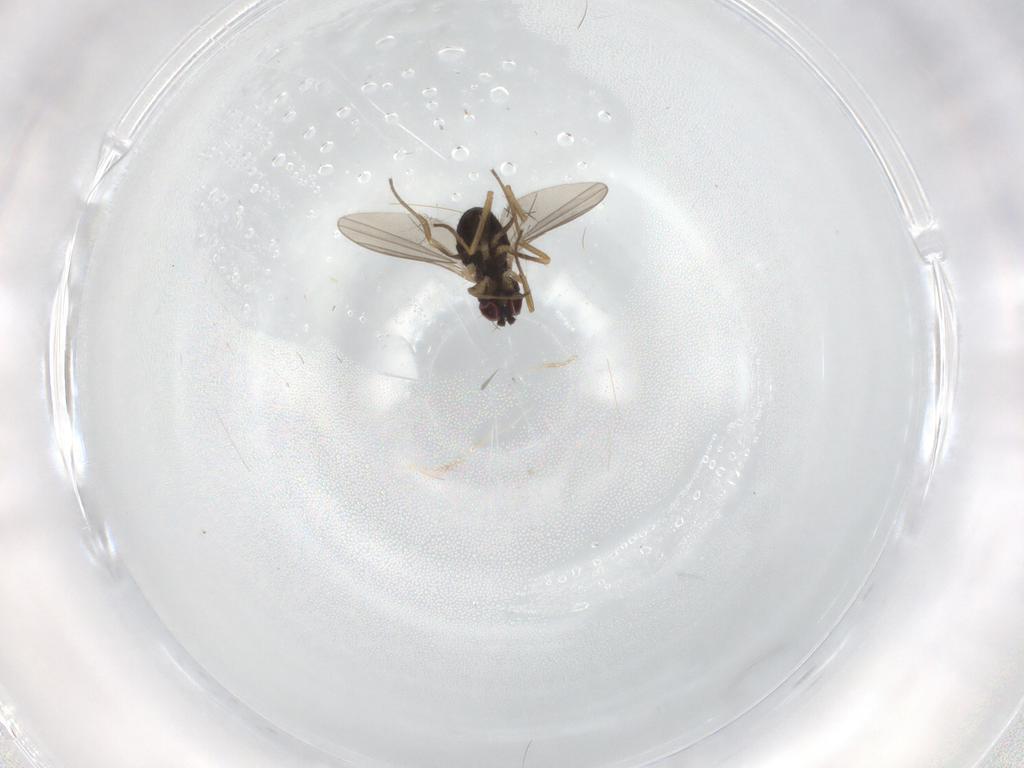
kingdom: Animalia
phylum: Arthropoda
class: Insecta
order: Diptera
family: Dolichopodidae
